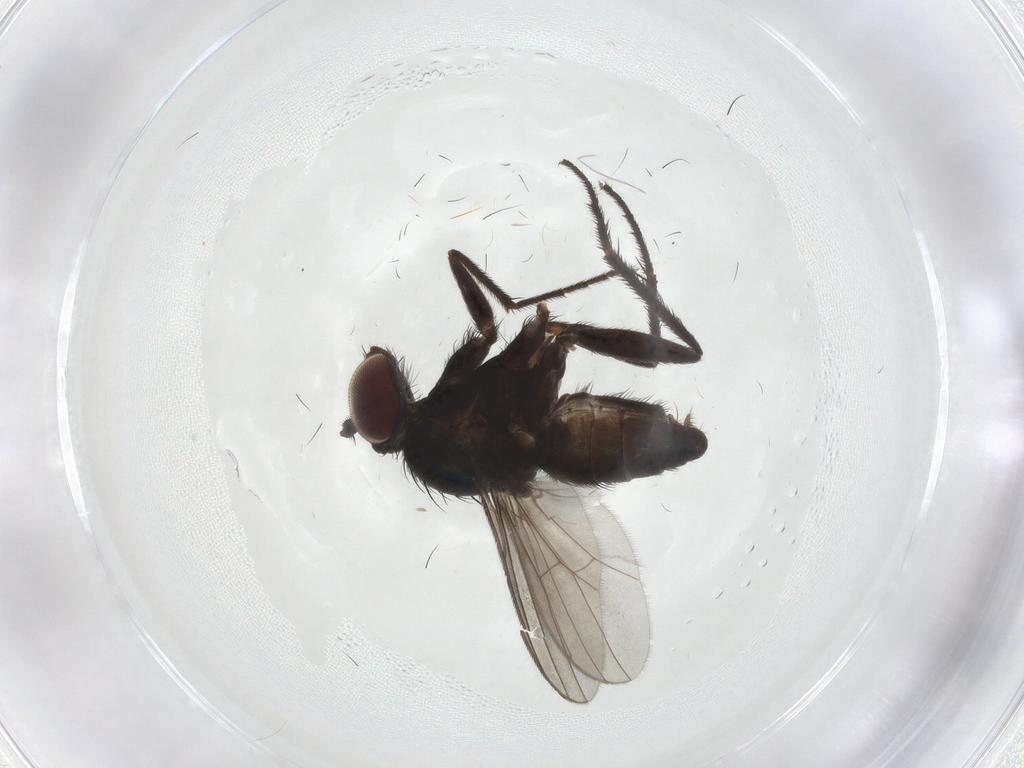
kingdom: Animalia
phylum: Arthropoda
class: Insecta
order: Diptera
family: Dolichopodidae
